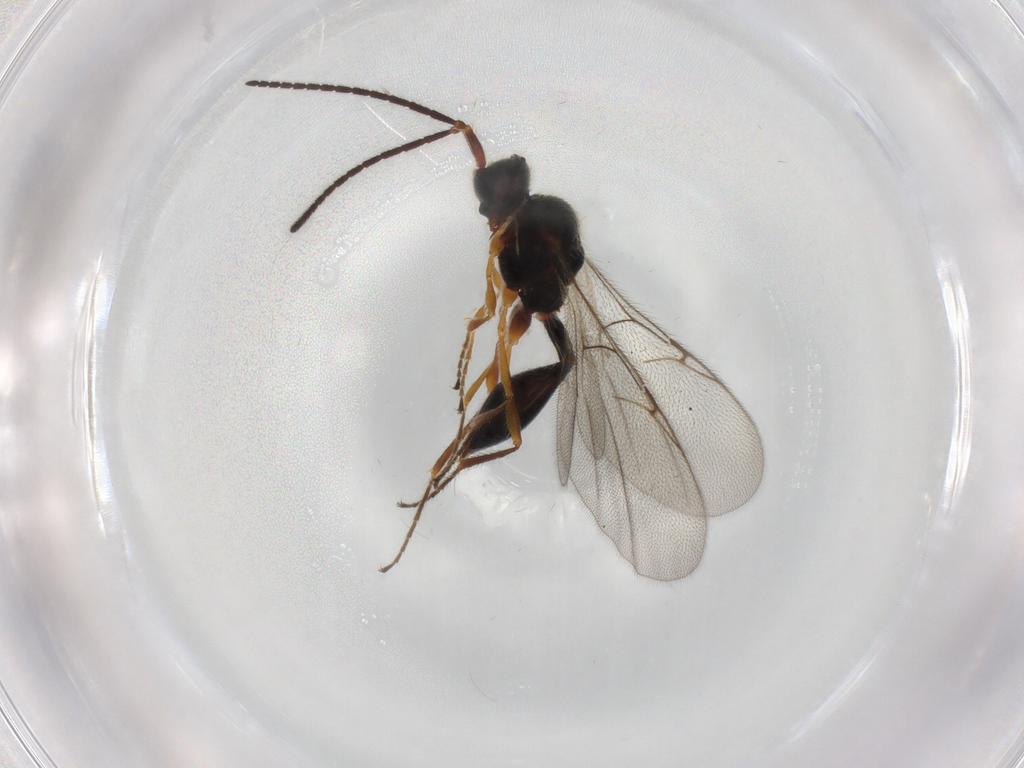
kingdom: Animalia
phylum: Arthropoda
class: Insecta
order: Hymenoptera
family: Diapriidae
